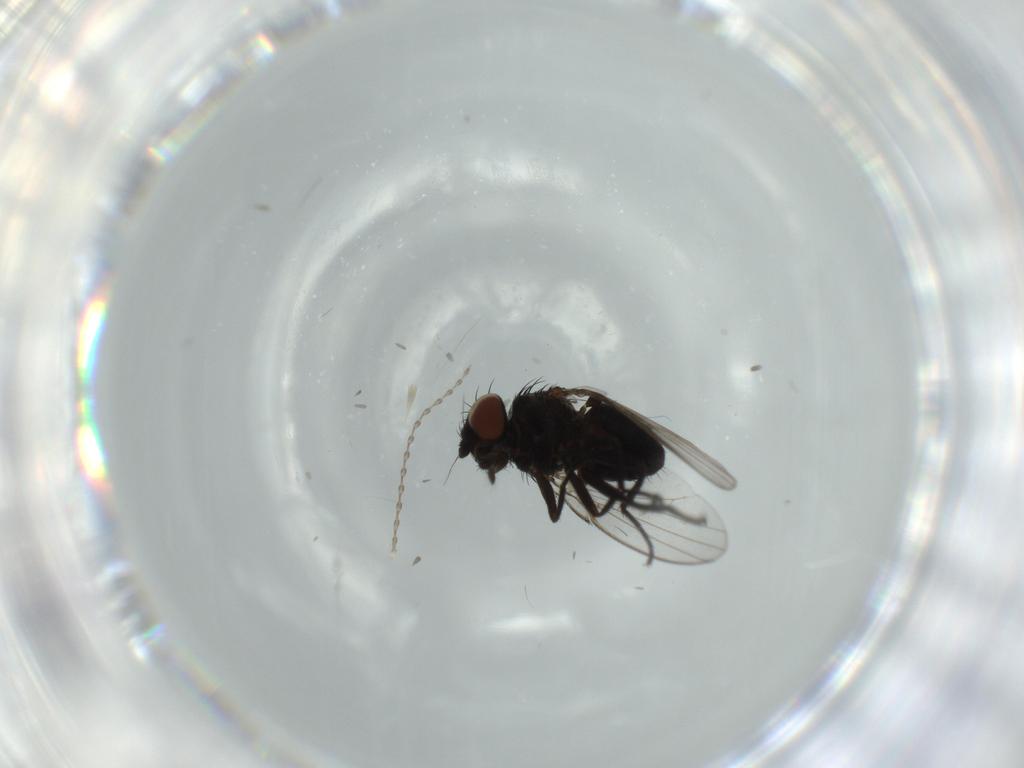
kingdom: Animalia
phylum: Arthropoda
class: Insecta
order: Diptera
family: Milichiidae
